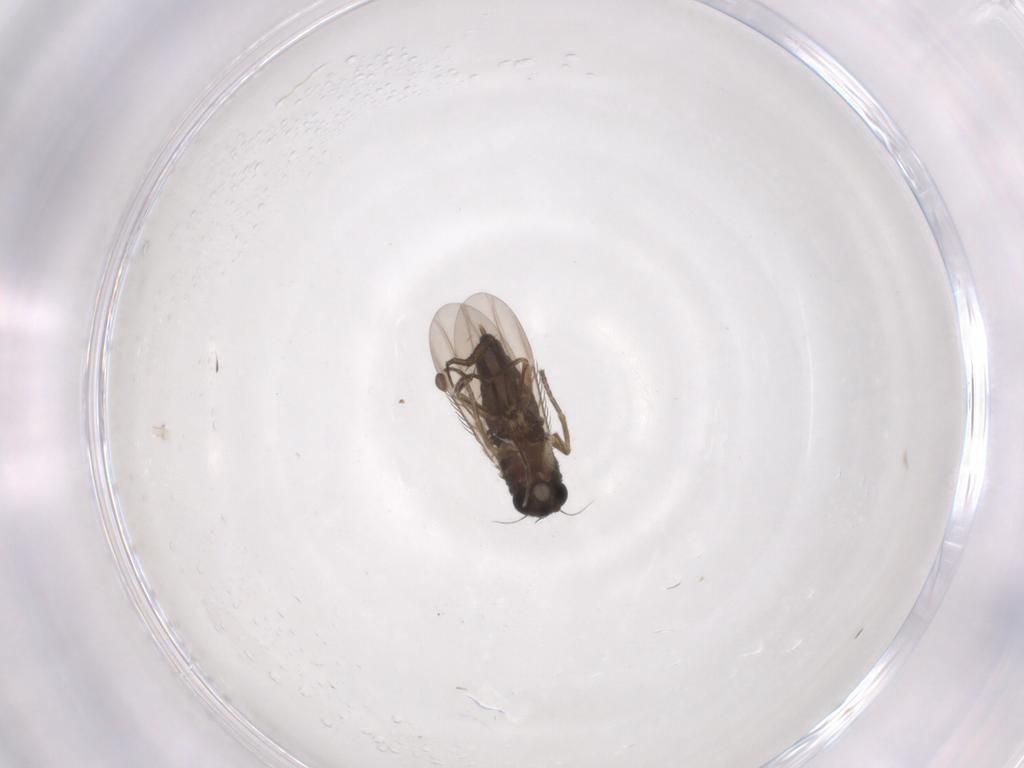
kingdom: Animalia
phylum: Arthropoda
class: Insecta
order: Diptera
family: Phoridae
